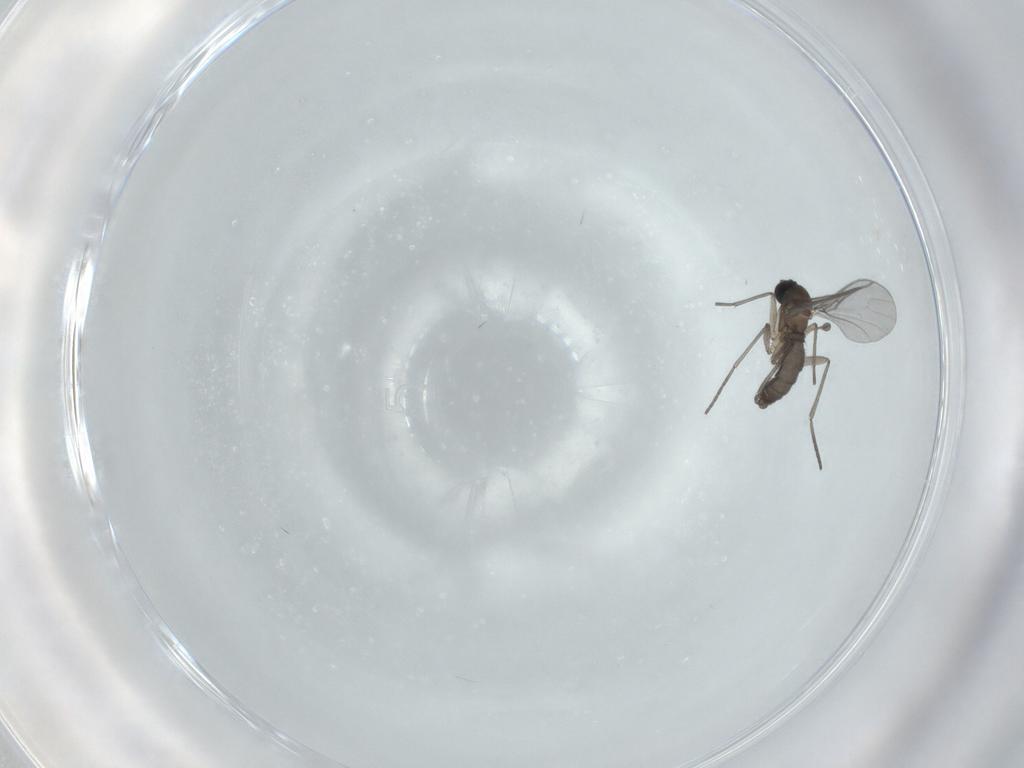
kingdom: Animalia
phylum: Arthropoda
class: Insecta
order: Diptera
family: Dolichopodidae
